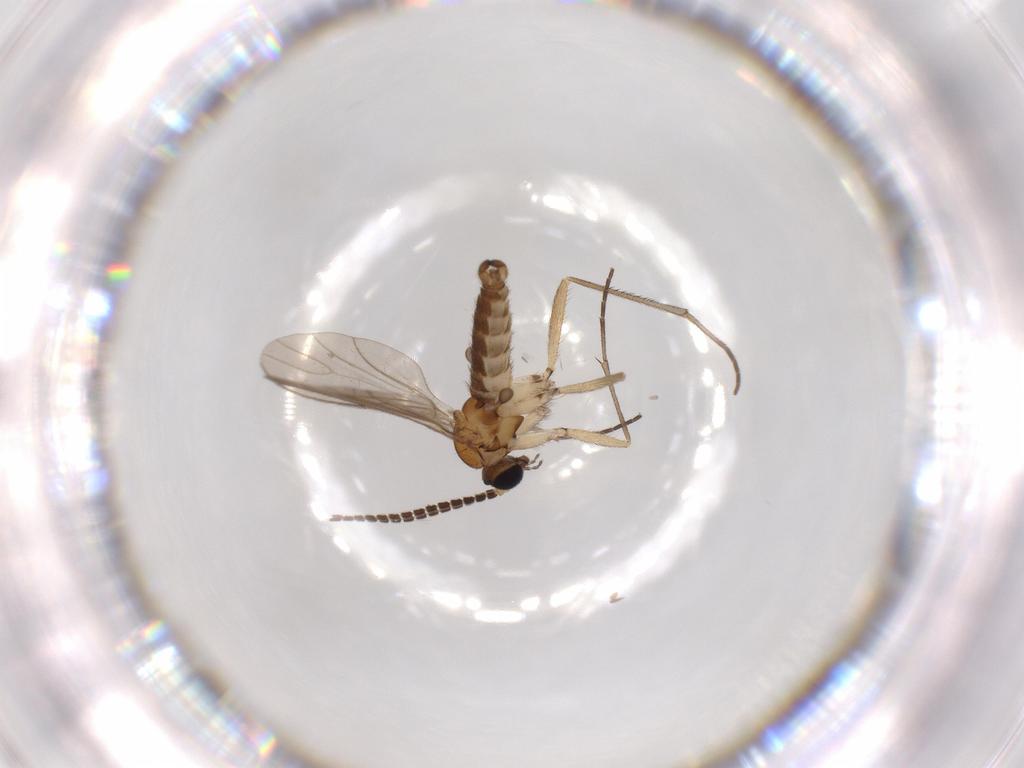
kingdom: Animalia
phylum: Arthropoda
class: Insecta
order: Diptera
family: Sciaridae
